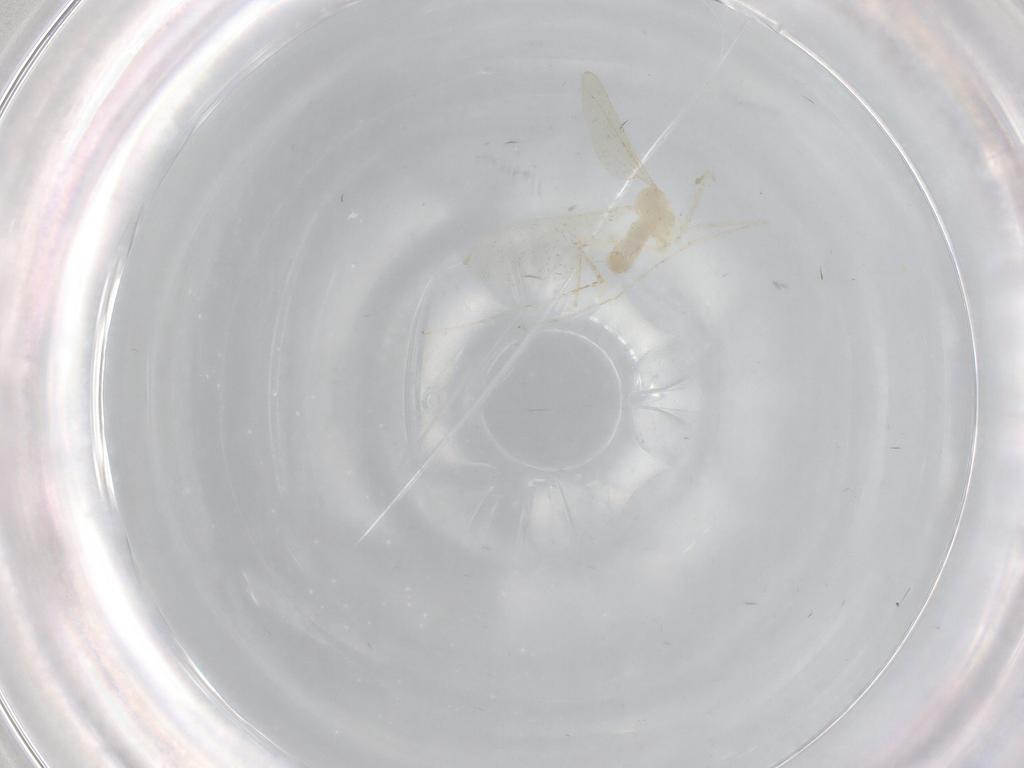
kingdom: Animalia
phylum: Arthropoda
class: Insecta
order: Diptera
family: Cecidomyiidae
